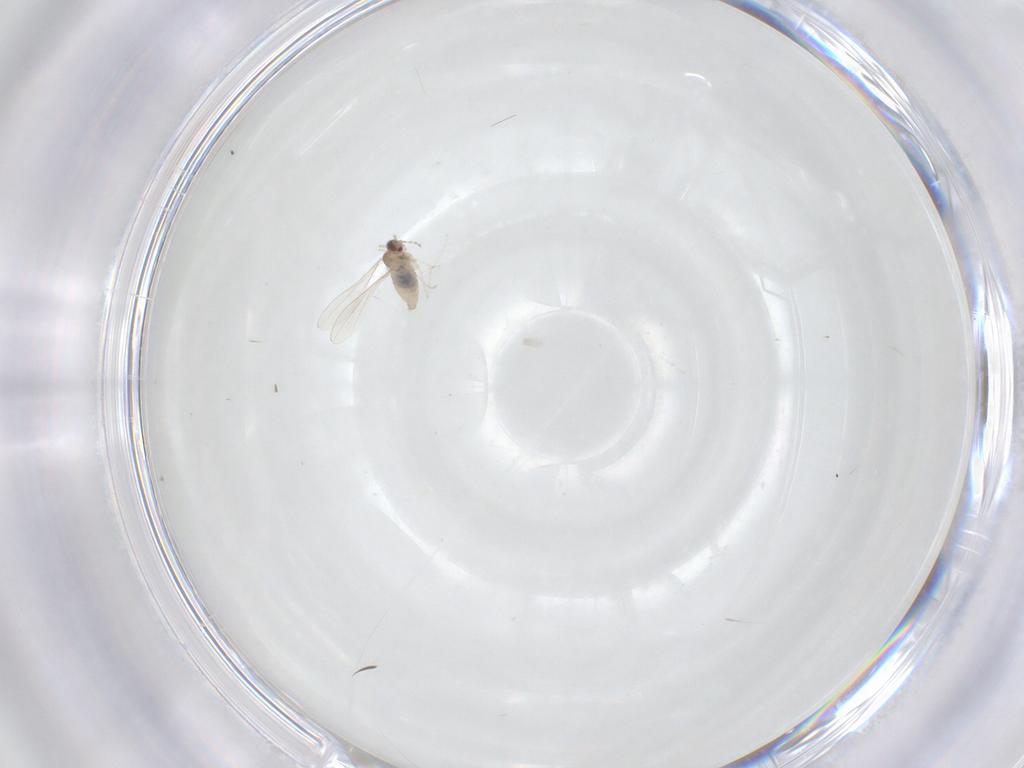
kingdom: Animalia
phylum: Arthropoda
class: Insecta
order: Diptera
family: Cecidomyiidae
